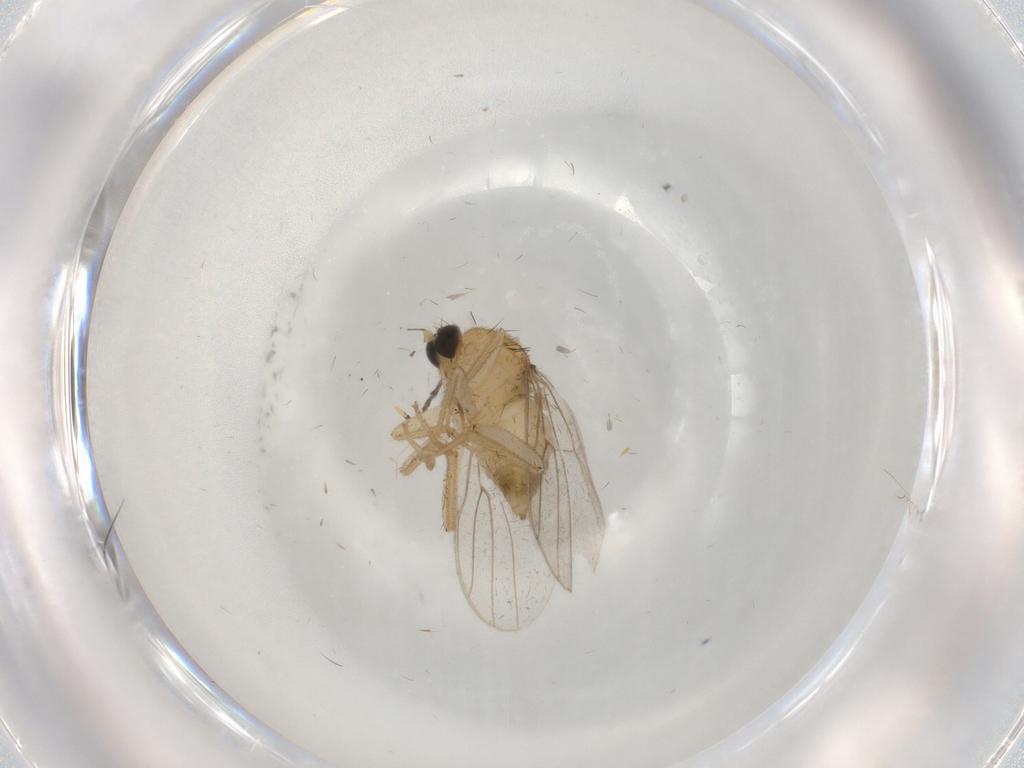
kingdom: Animalia
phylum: Arthropoda
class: Insecta
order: Diptera
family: Hybotidae
